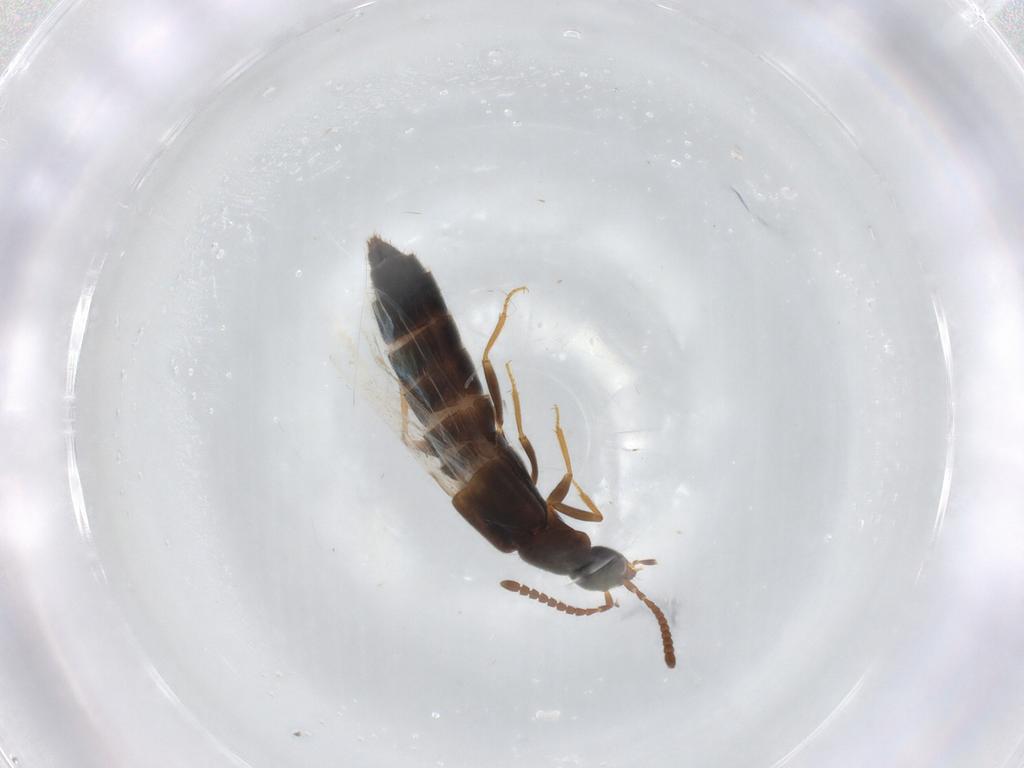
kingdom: Animalia
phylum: Arthropoda
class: Insecta
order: Coleoptera
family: Staphylinidae
